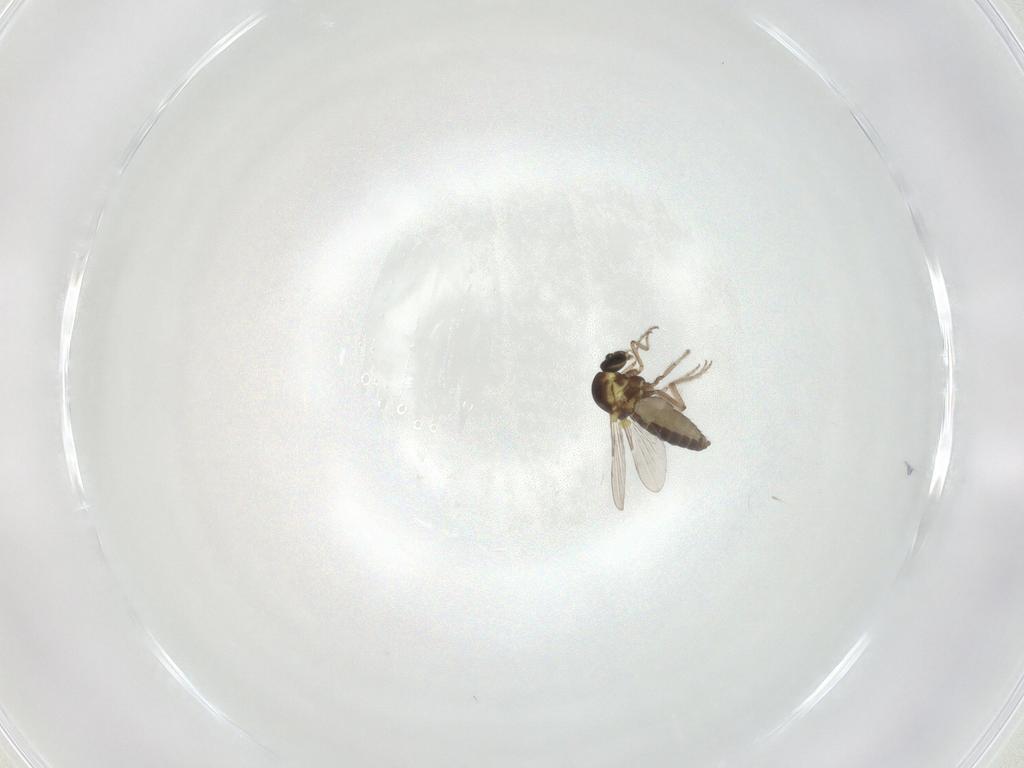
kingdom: Animalia
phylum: Arthropoda
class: Insecta
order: Diptera
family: Ceratopogonidae
